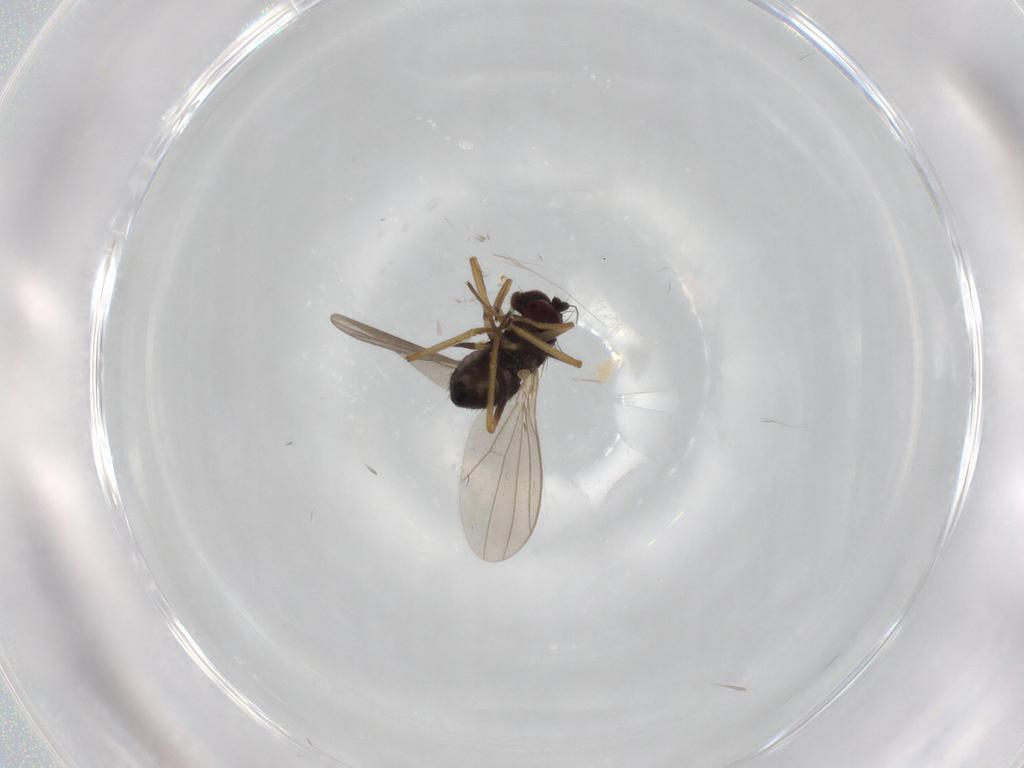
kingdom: Animalia
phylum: Arthropoda
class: Insecta
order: Diptera
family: Dolichopodidae
